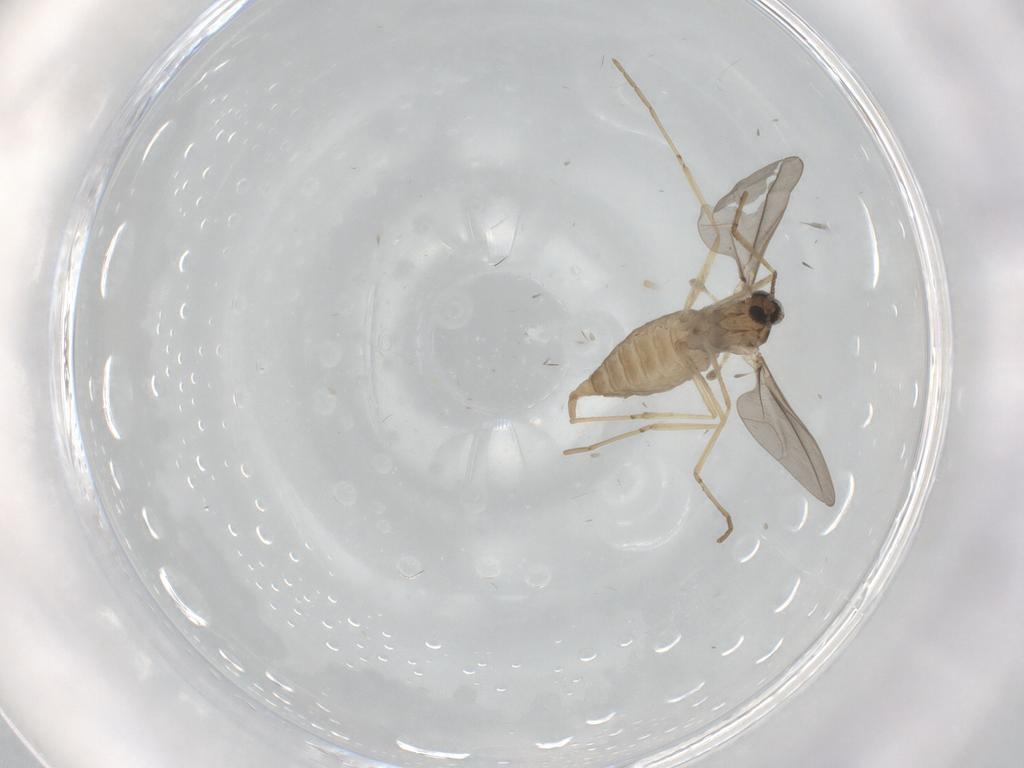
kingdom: Animalia
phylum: Arthropoda
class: Insecta
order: Diptera
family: Cecidomyiidae
